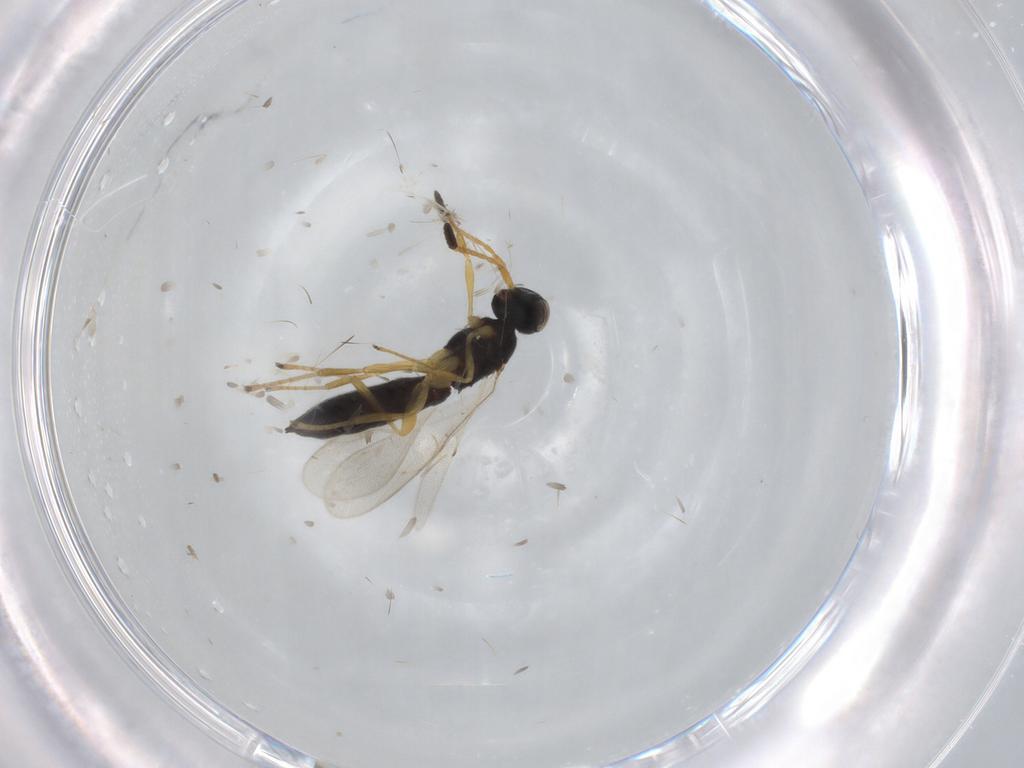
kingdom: Animalia
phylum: Arthropoda
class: Insecta
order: Hymenoptera
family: Scelionidae
